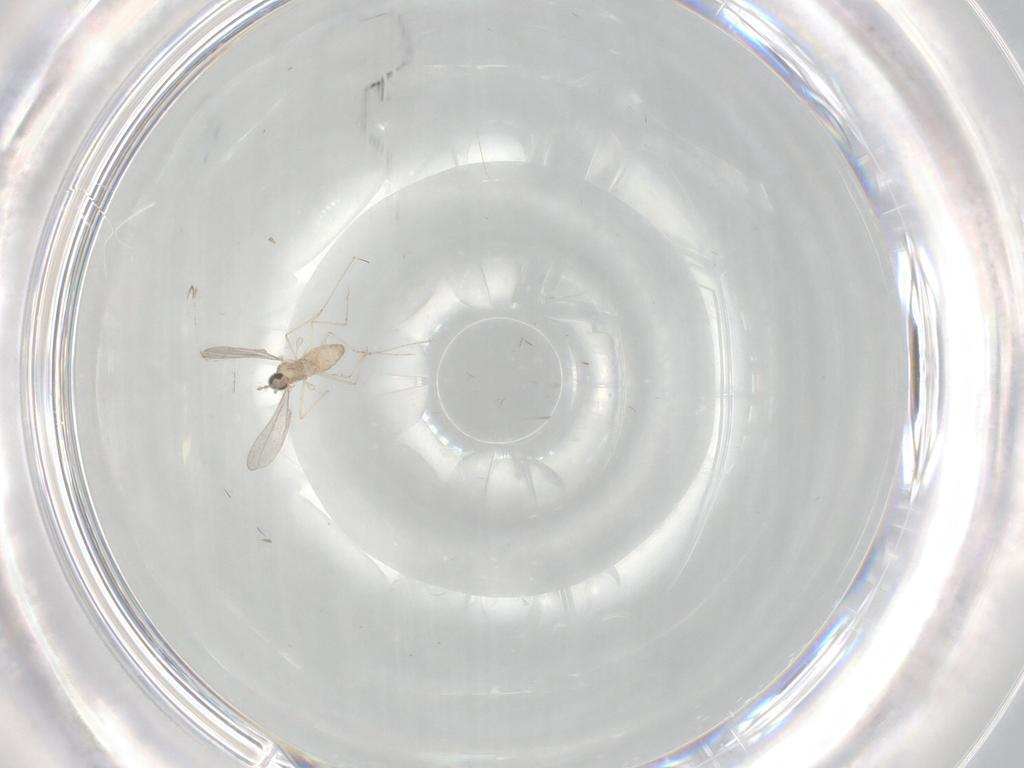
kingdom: Animalia
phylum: Arthropoda
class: Insecta
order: Diptera
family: Cecidomyiidae
